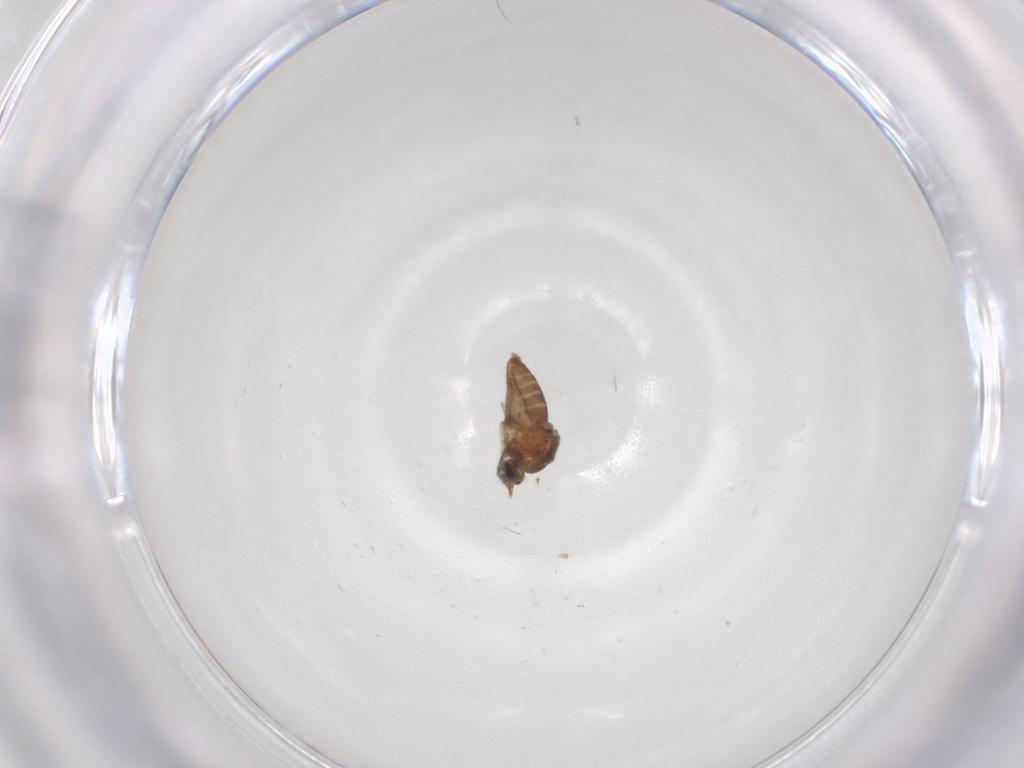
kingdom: Animalia
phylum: Arthropoda
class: Insecta
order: Diptera
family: Ceratopogonidae
